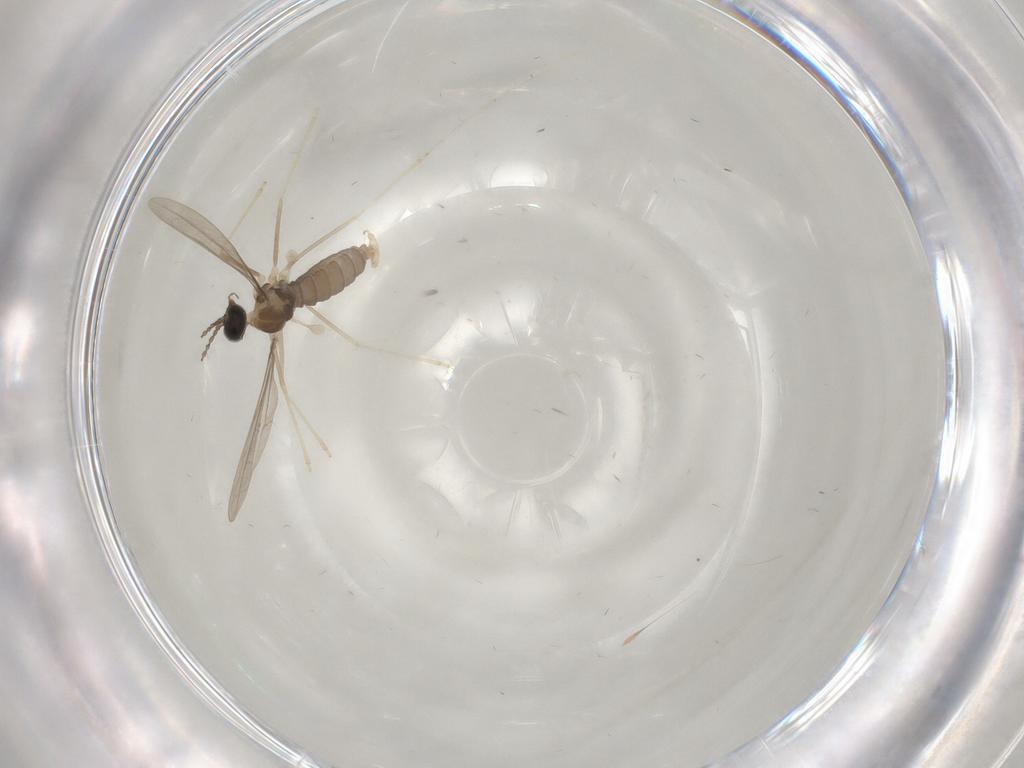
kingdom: Animalia
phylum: Arthropoda
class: Insecta
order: Diptera
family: Cecidomyiidae
